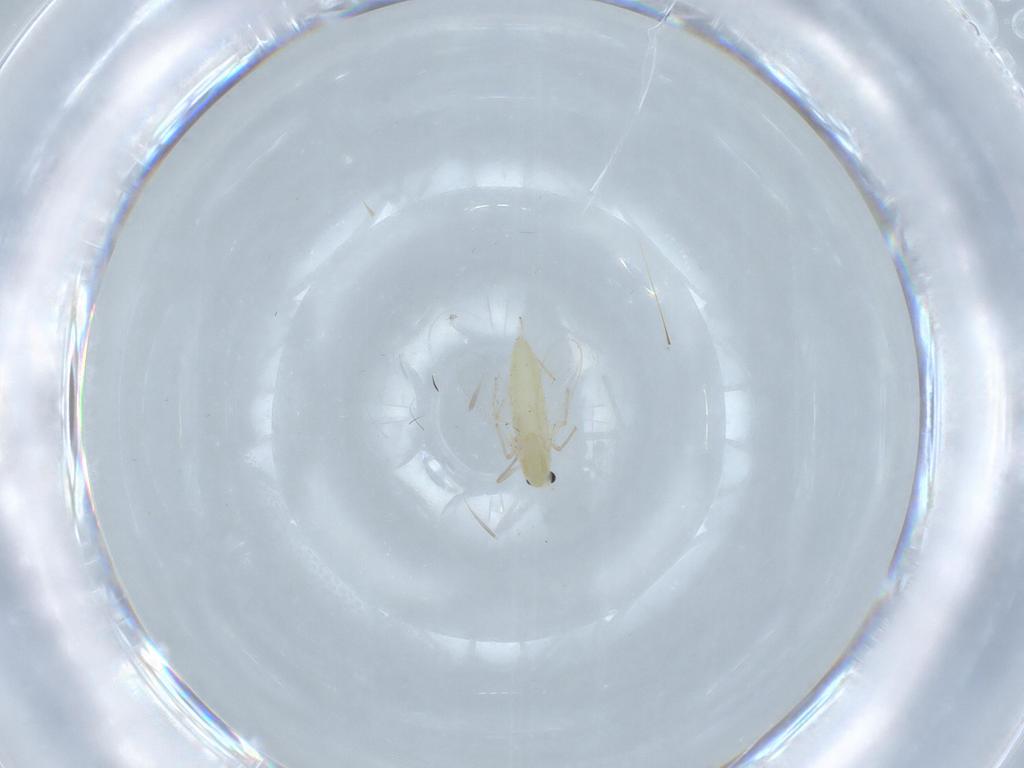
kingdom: Animalia
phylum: Arthropoda
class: Insecta
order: Diptera
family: Chironomidae
